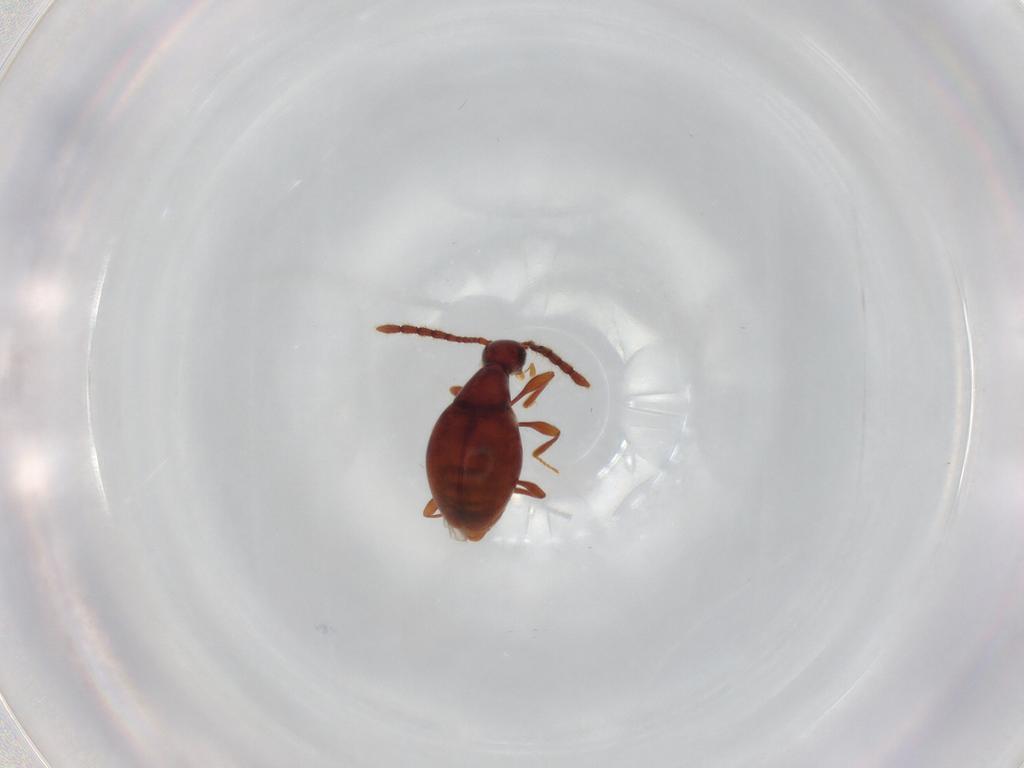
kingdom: Animalia
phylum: Arthropoda
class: Insecta
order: Coleoptera
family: Staphylinidae
